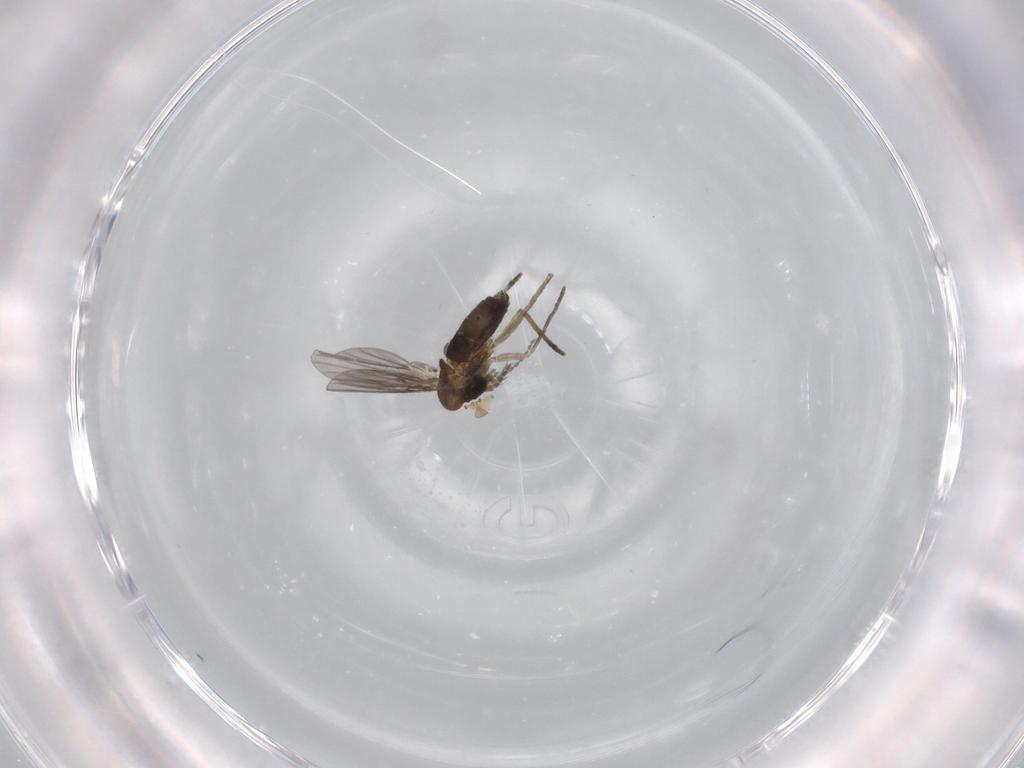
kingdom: Animalia
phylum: Arthropoda
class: Insecta
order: Diptera
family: Cecidomyiidae
